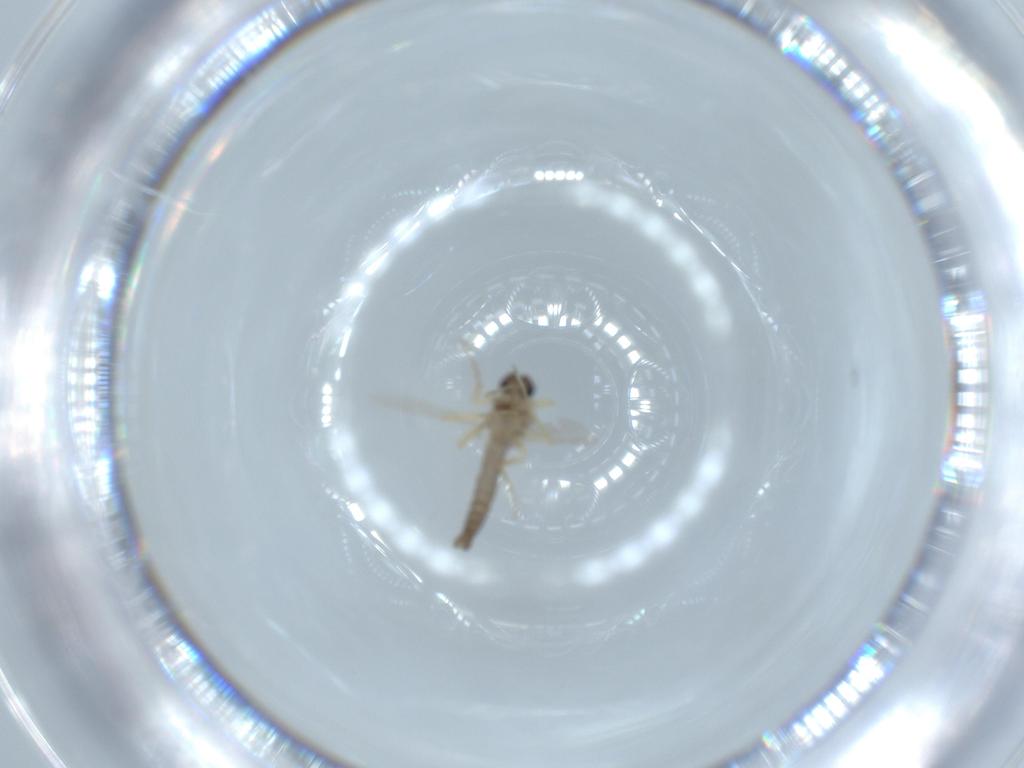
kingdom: Animalia
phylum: Arthropoda
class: Insecta
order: Diptera
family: Ceratopogonidae
